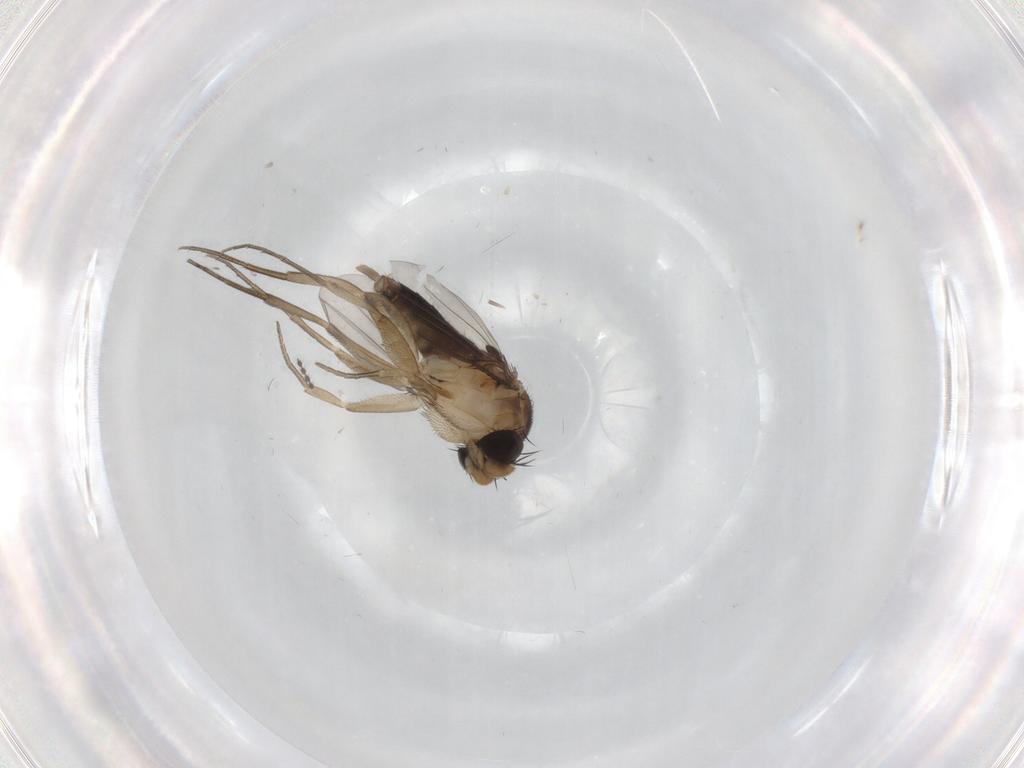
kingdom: Animalia
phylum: Arthropoda
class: Insecta
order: Diptera
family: Phoridae
